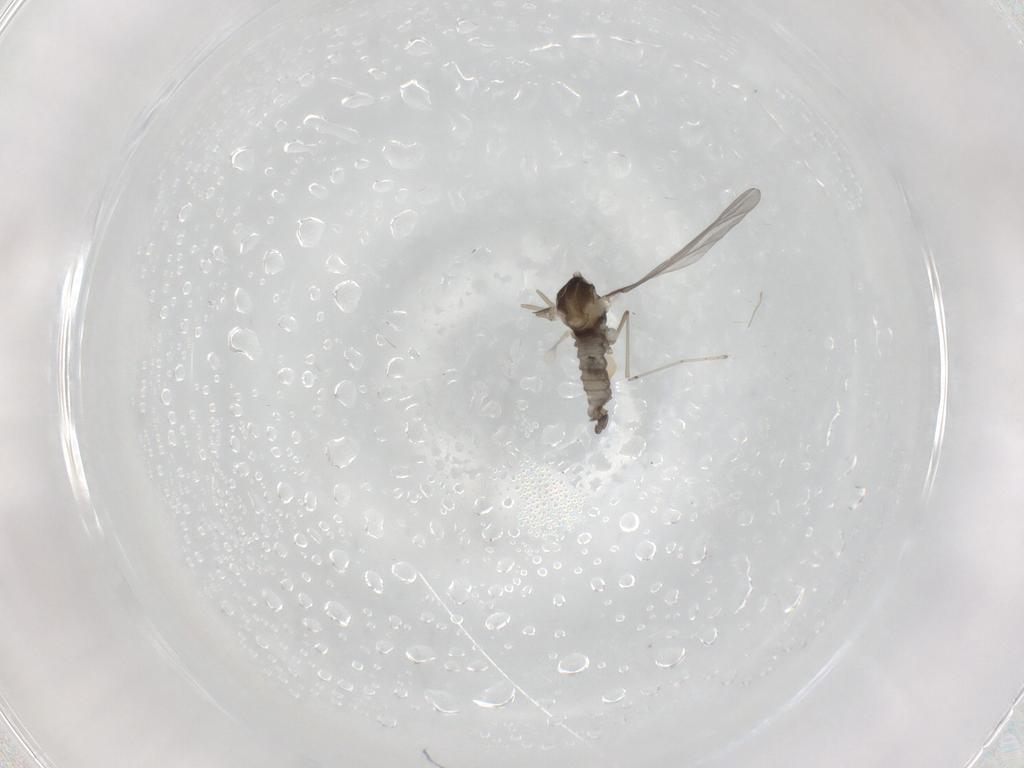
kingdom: Animalia
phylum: Arthropoda
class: Insecta
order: Diptera
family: Cecidomyiidae
